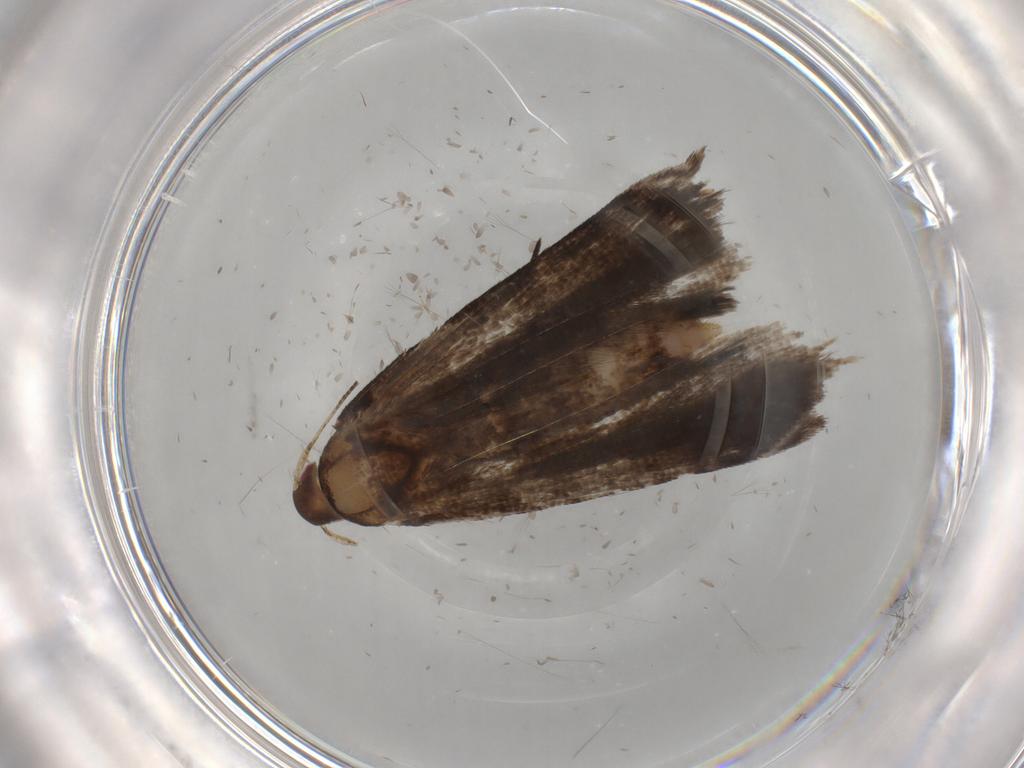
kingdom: Animalia
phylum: Arthropoda
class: Insecta
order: Lepidoptera
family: Gelechiidae
